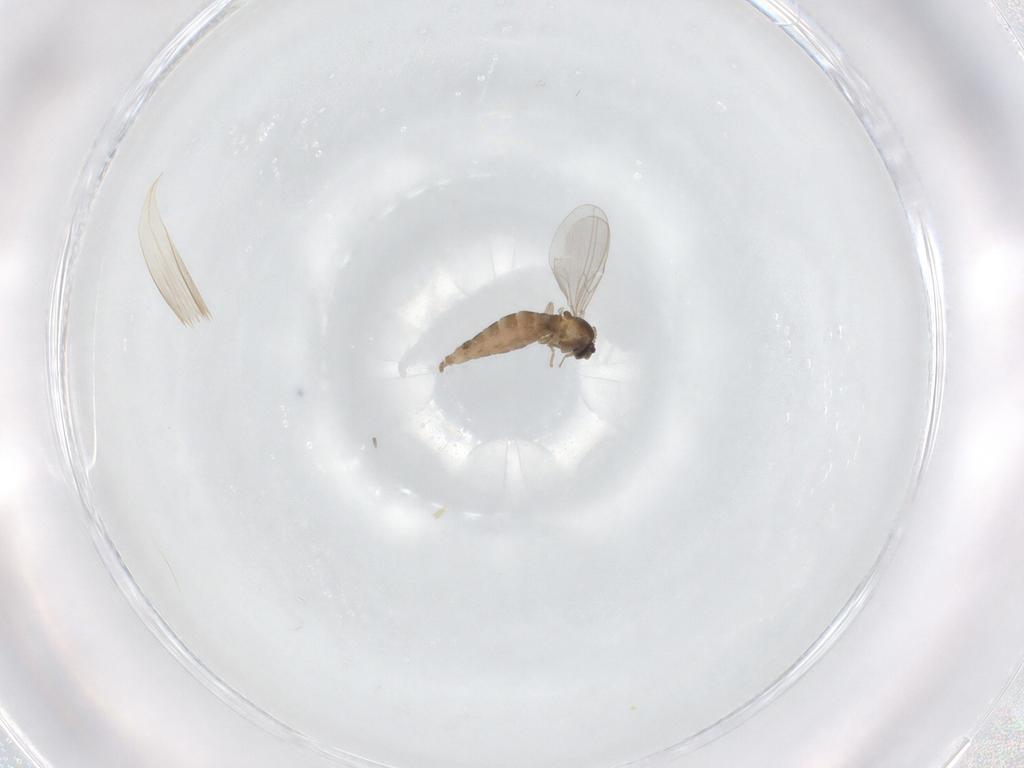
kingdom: Animalia
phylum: Arthropoda
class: Insecta
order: Diptera
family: Cecidomyiidae
